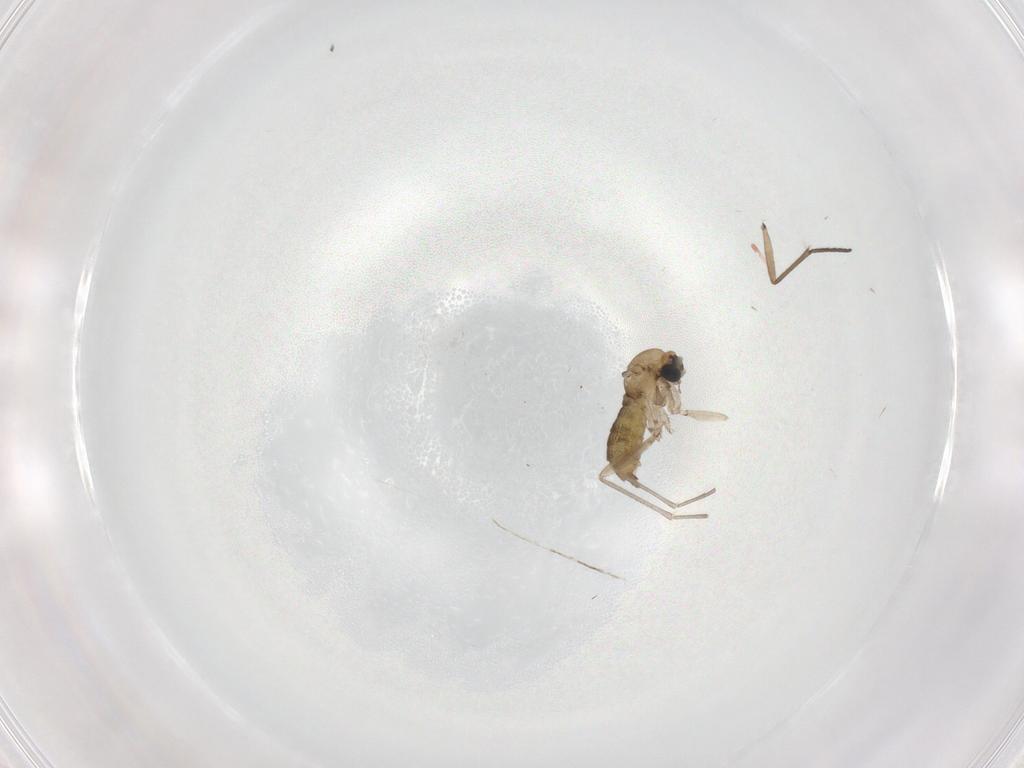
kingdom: Animalia
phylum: Arthropoda
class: Insecta
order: Diptera
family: Sciaridae
